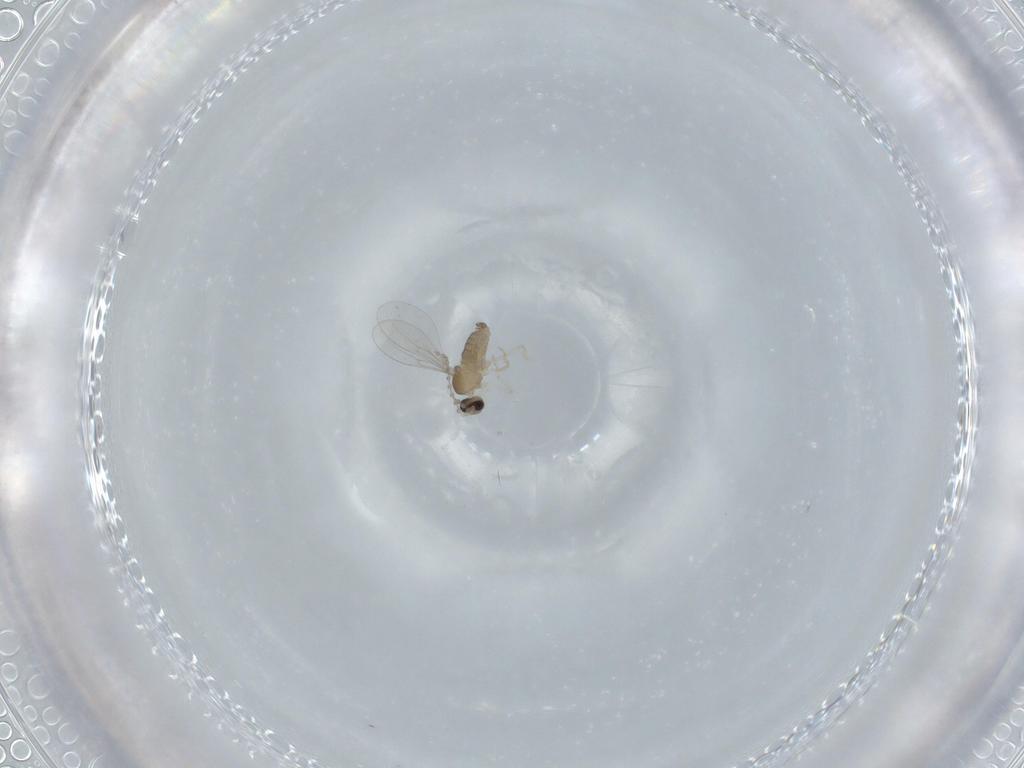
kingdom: Animalia
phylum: Arthropoda
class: Insecta
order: Diptera
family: Cecidomyiidae
